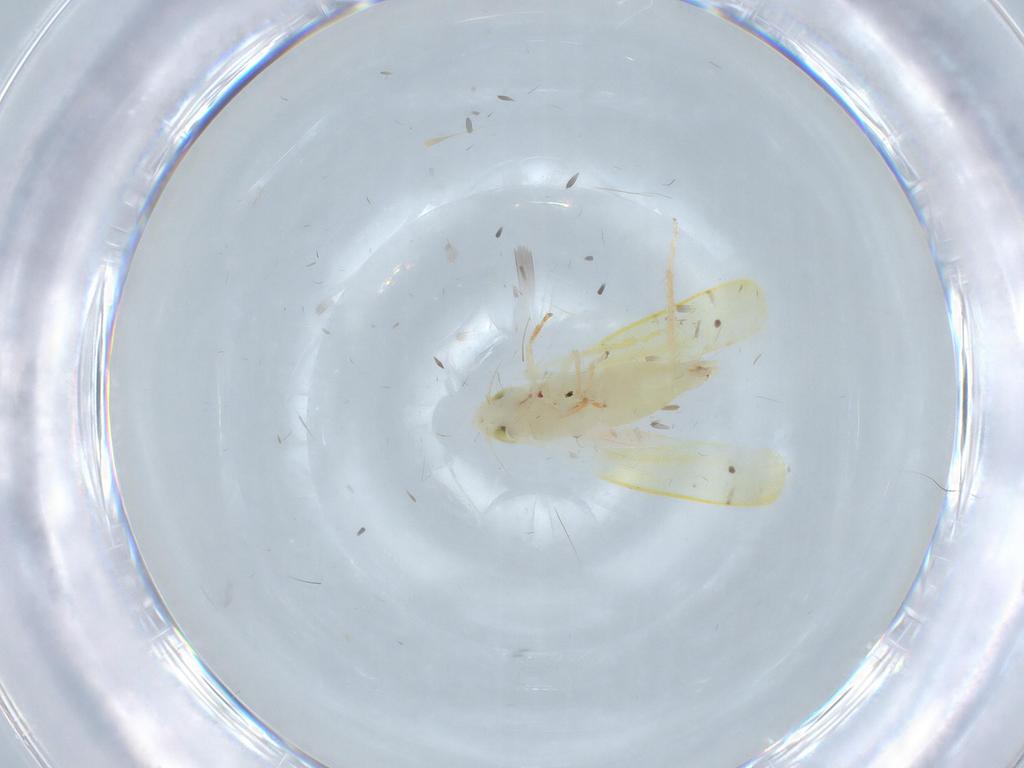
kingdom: Animalia
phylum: Arthropoda
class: Insecta
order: Hemiptera
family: Cicadellidae
